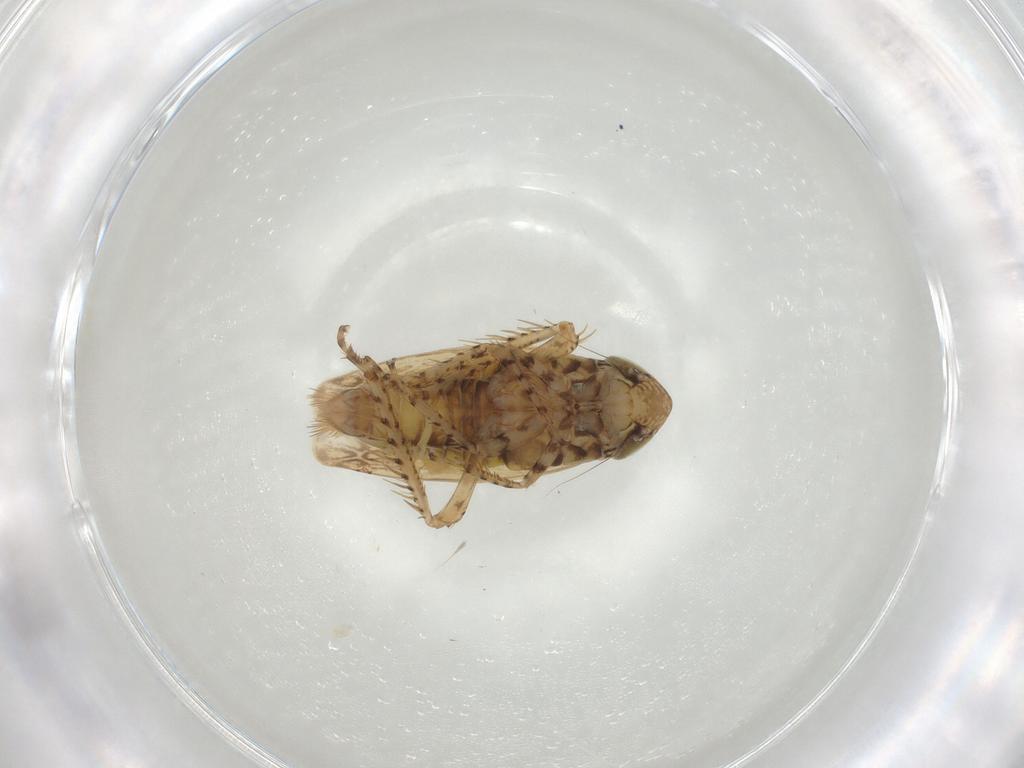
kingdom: Animalia
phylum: Arthropoda
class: Insecta
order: Hemiptera
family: Cicadellidae
